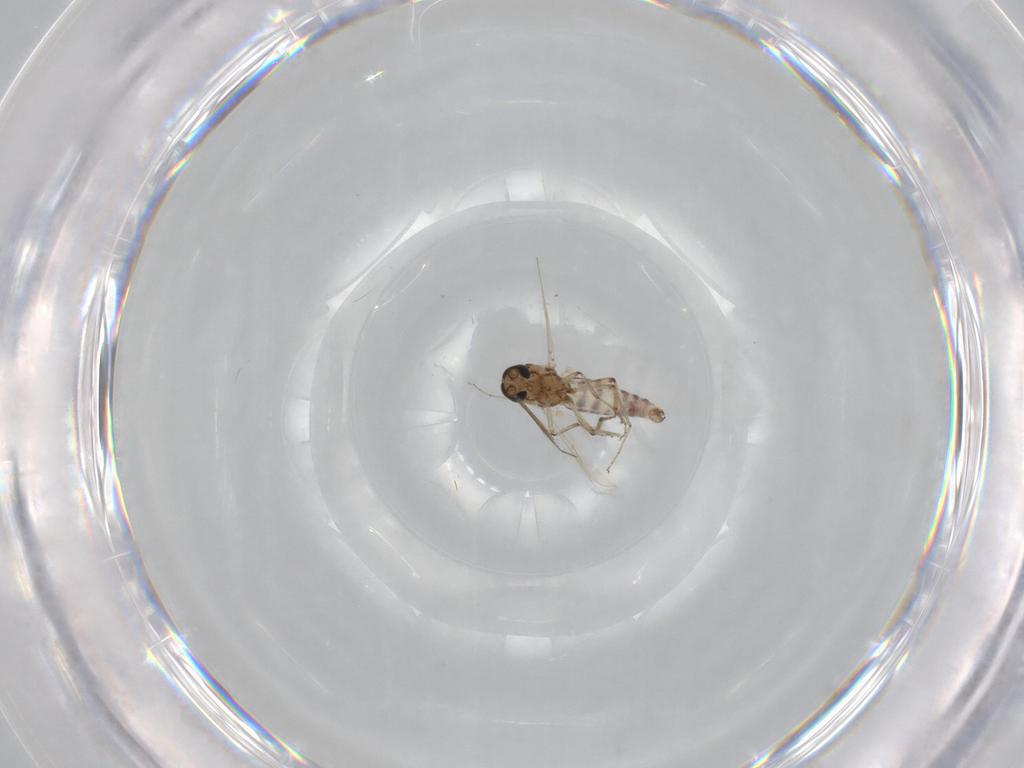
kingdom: Animalia
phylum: Arthropoda
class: Insecta
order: Diptera
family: Ceratopogonidae
